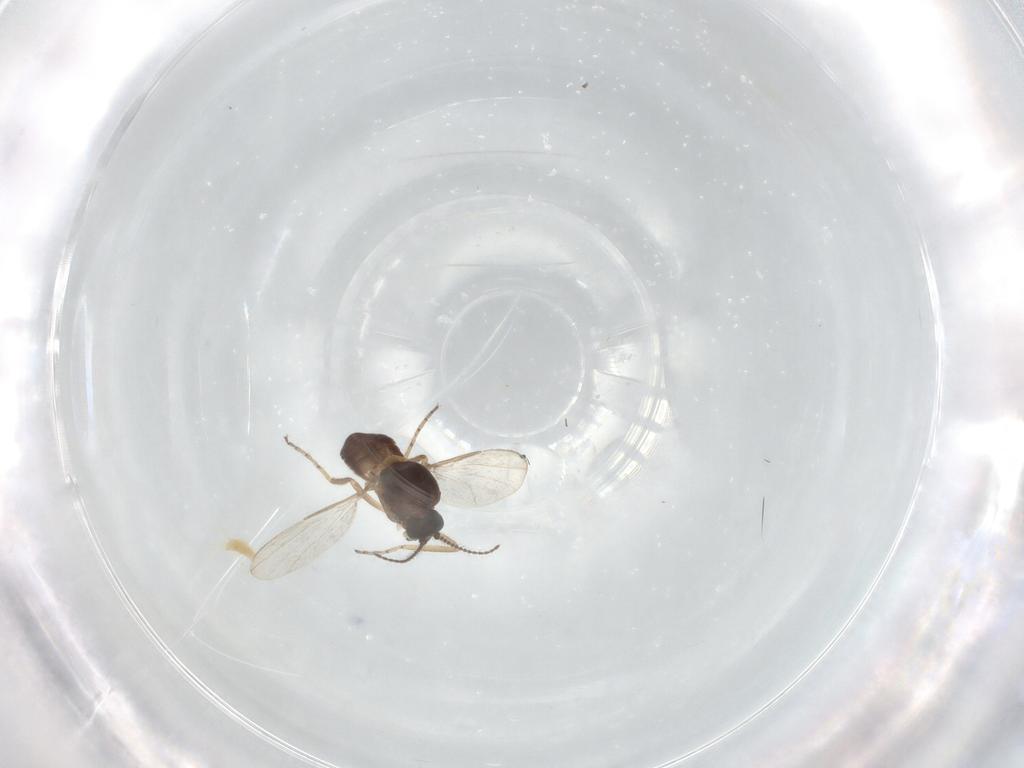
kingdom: Animalia
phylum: Arthropoda
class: Insecta
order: Diptera
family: Cecidomyiidae
